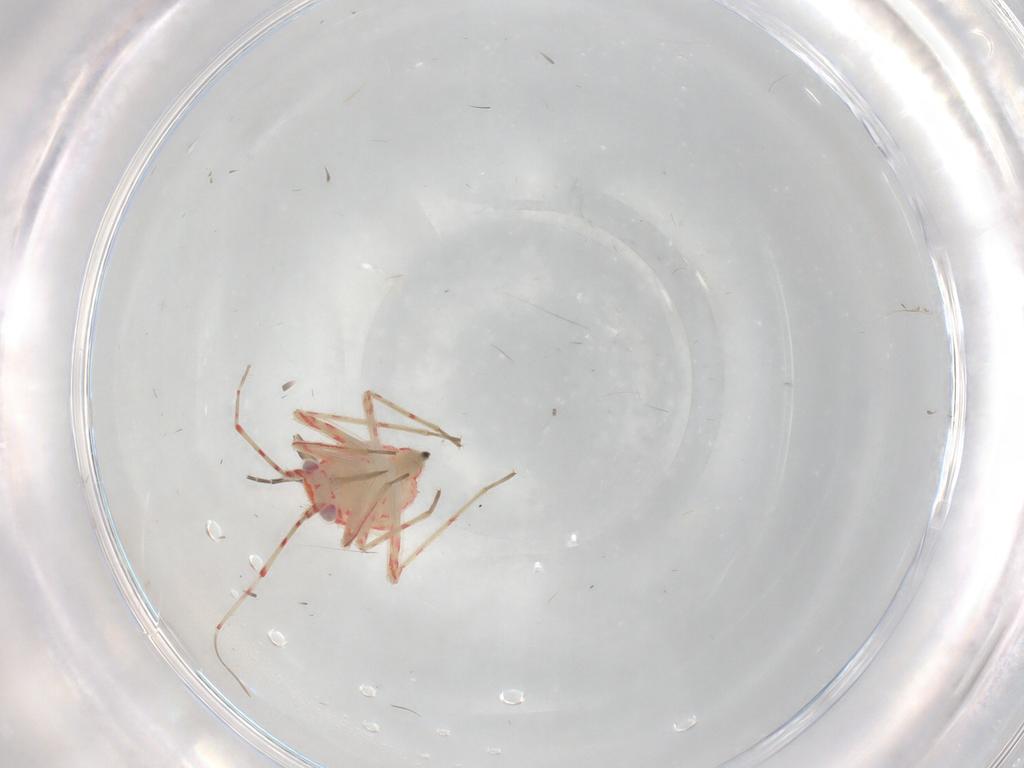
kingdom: Animalia
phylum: Arthropoda
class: Insecta
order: Hemiptera
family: Miridae
